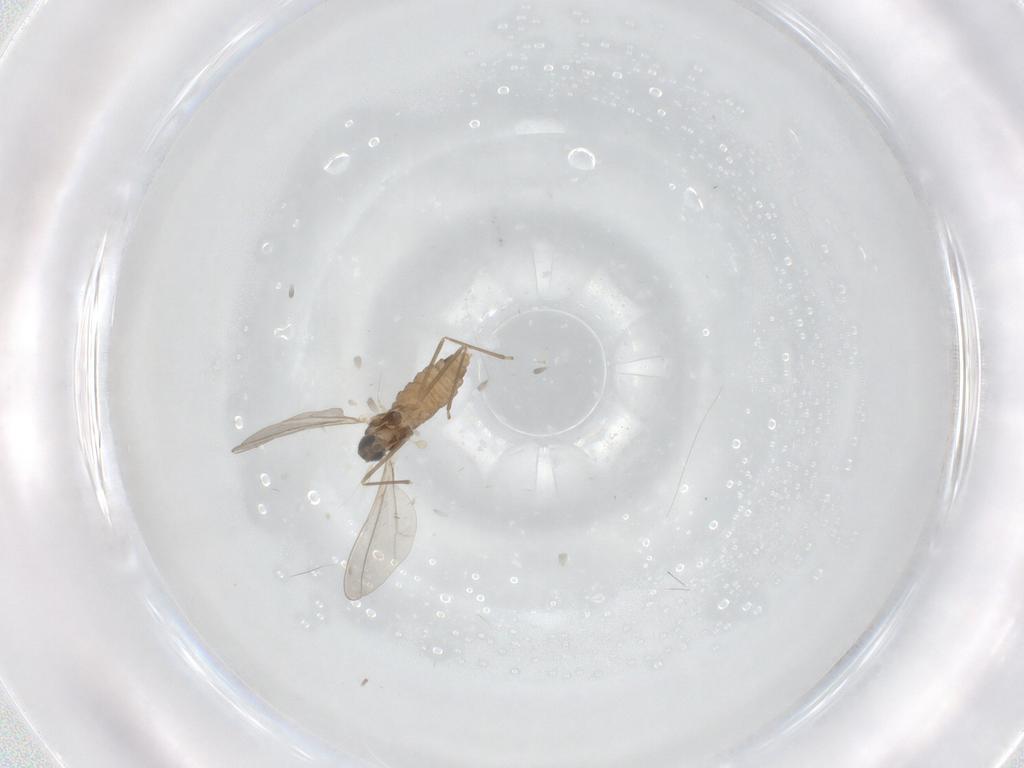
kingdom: Animalia
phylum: Arthropoda
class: Insecta
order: Diptera
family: Cecidomyiidae
